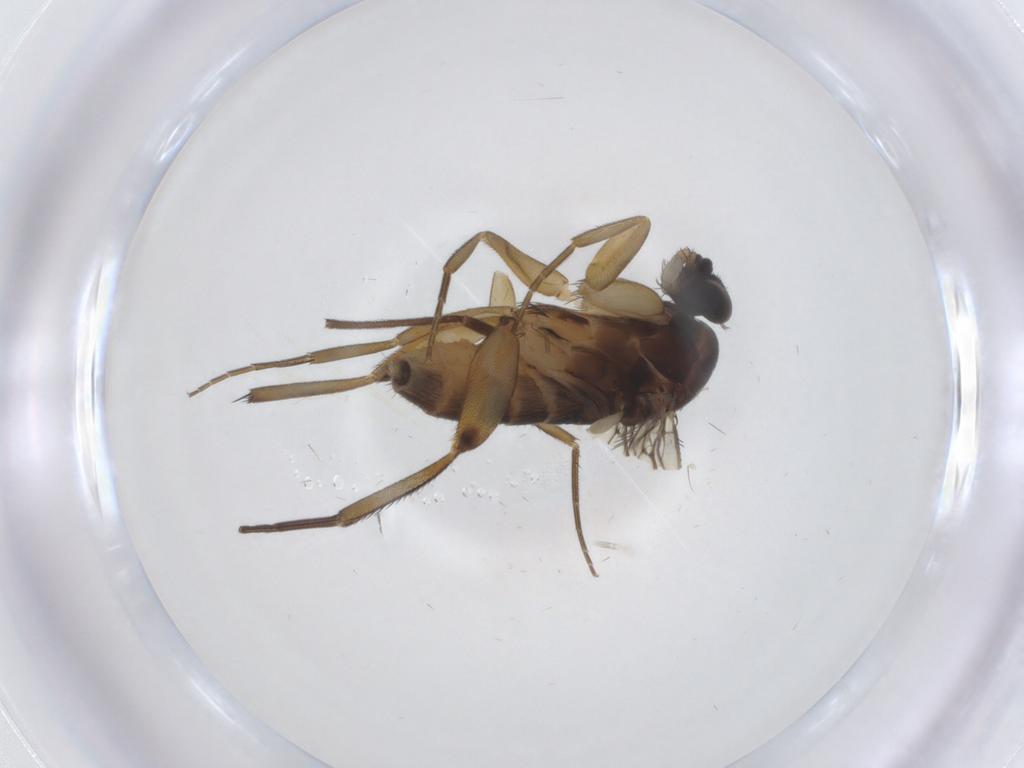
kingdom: Animalia
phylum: Arthropoda
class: Insecta
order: Diptera
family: Phoridae
